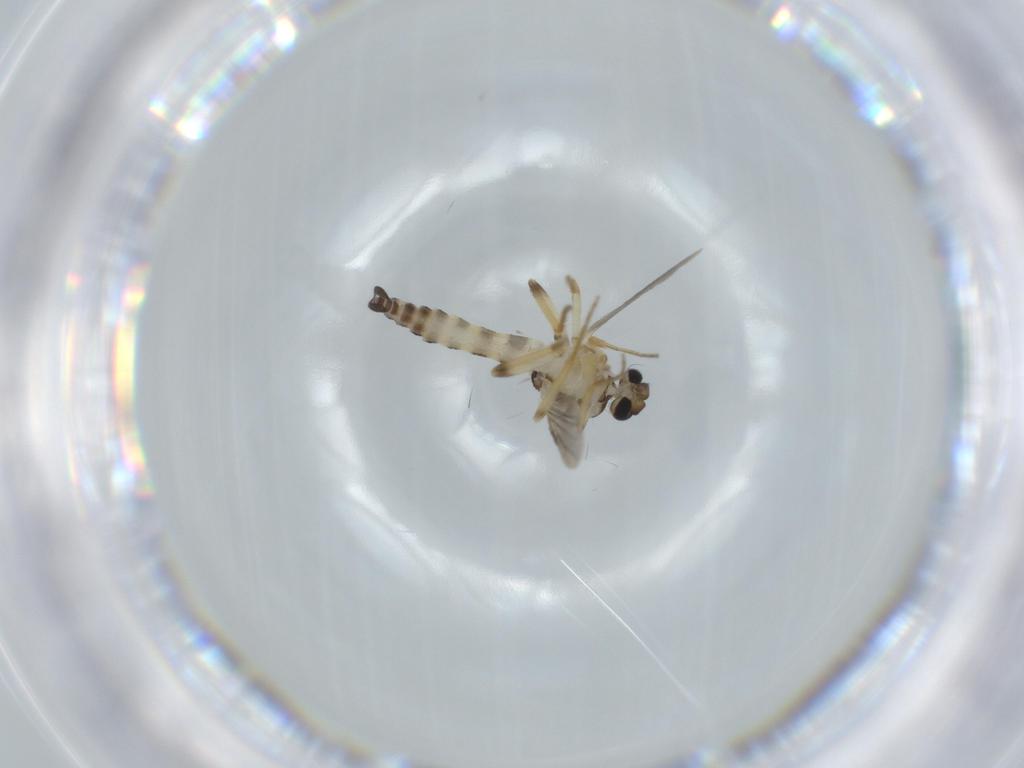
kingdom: Animalia
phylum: Arthropoda
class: Insecta
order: Diptera
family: Ceratopogonidae
